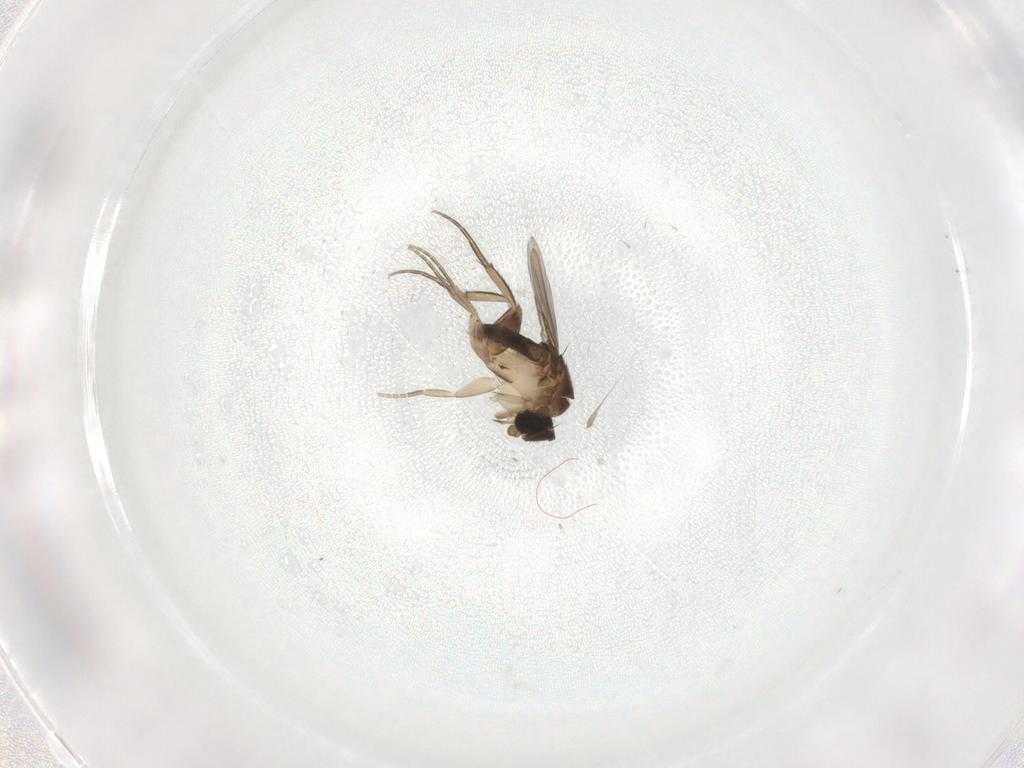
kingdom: Animalia
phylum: Arthropoda
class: Insecta
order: Diptera
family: Phoridae
